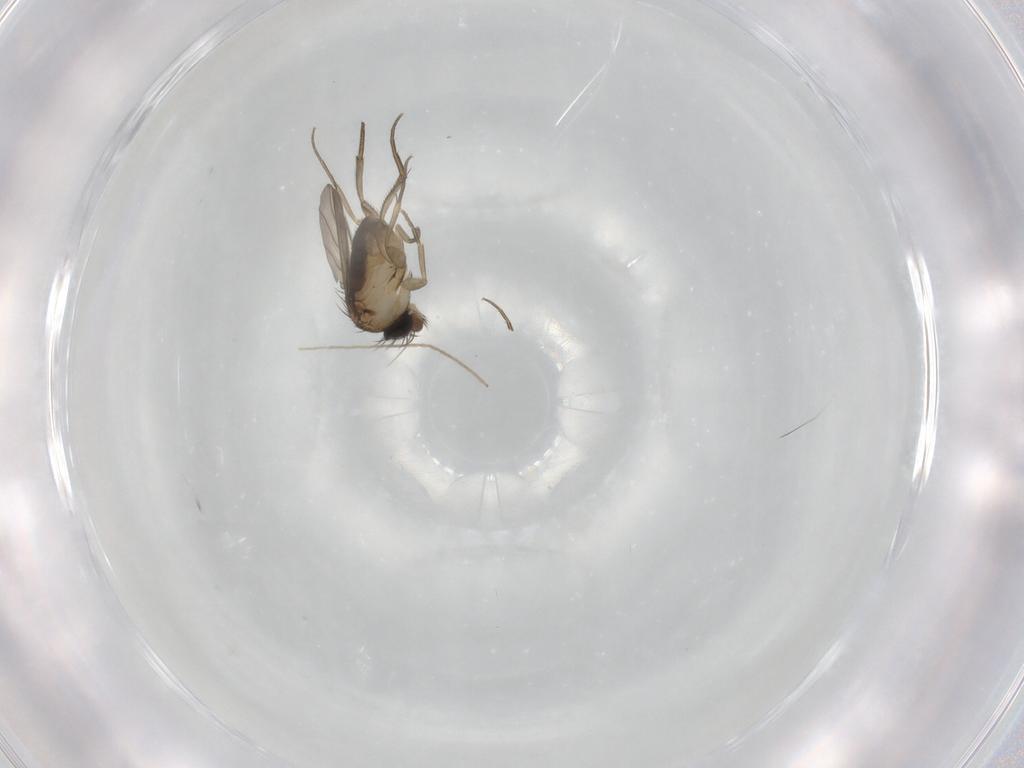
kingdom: Animalia
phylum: Arthropoda
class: Insecta
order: Diptera
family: Phoridae
